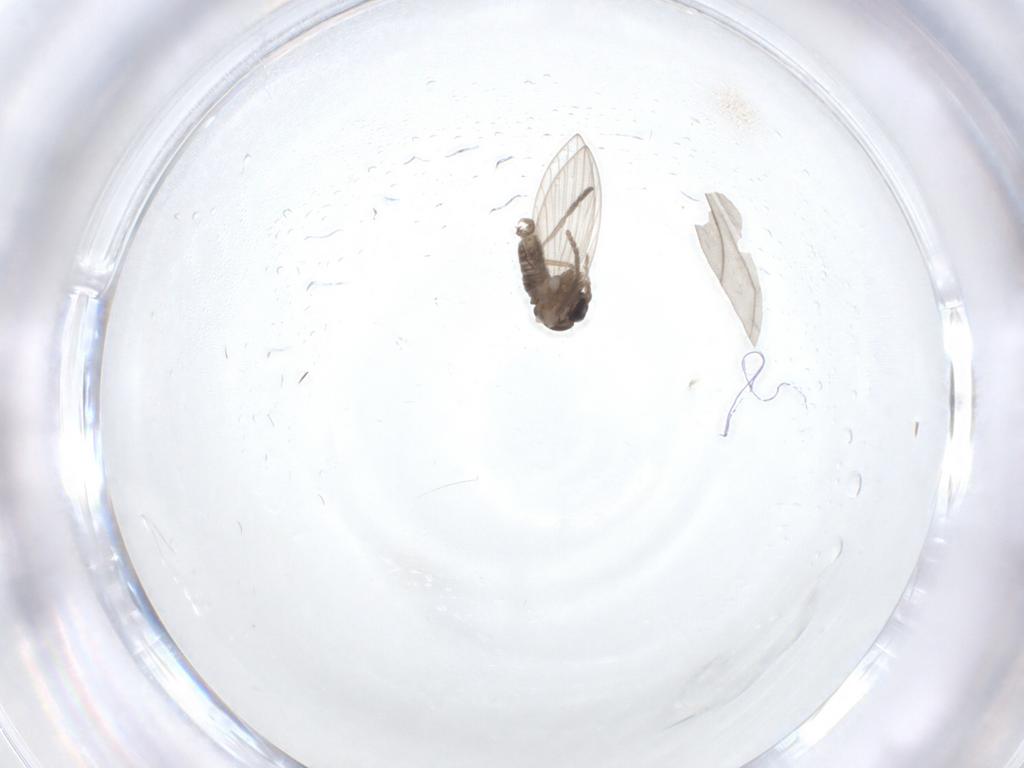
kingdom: Animalia
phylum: Arthropoda
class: Insecta
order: Diptera
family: Psychodidae
